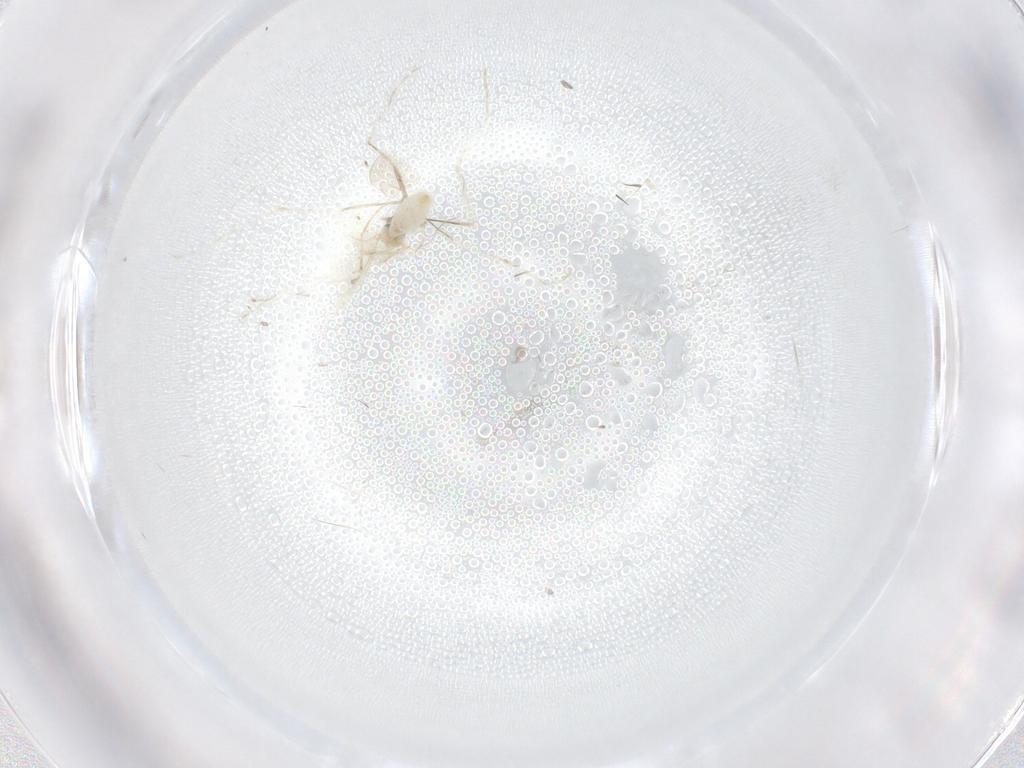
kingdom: Animalia
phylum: Arthropoda
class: Insecta
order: Diptera
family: Cecidomyiidae
